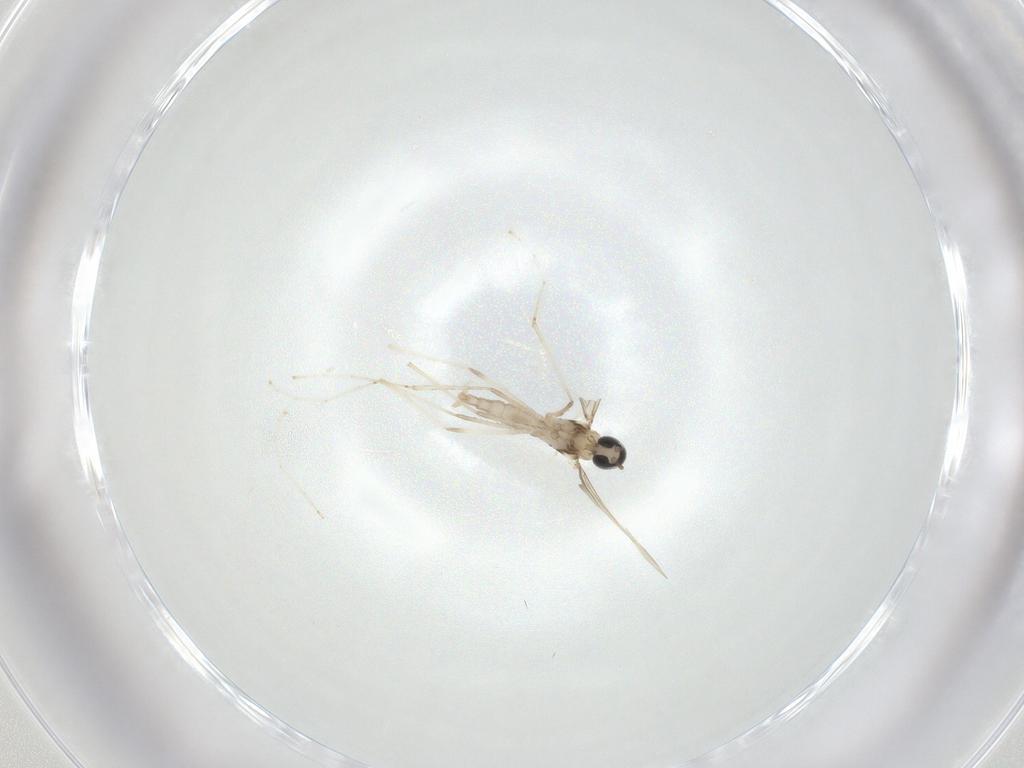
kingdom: Animalia
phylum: Arthropoda
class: Insecta
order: Diptera
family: Cecidomyiidae
